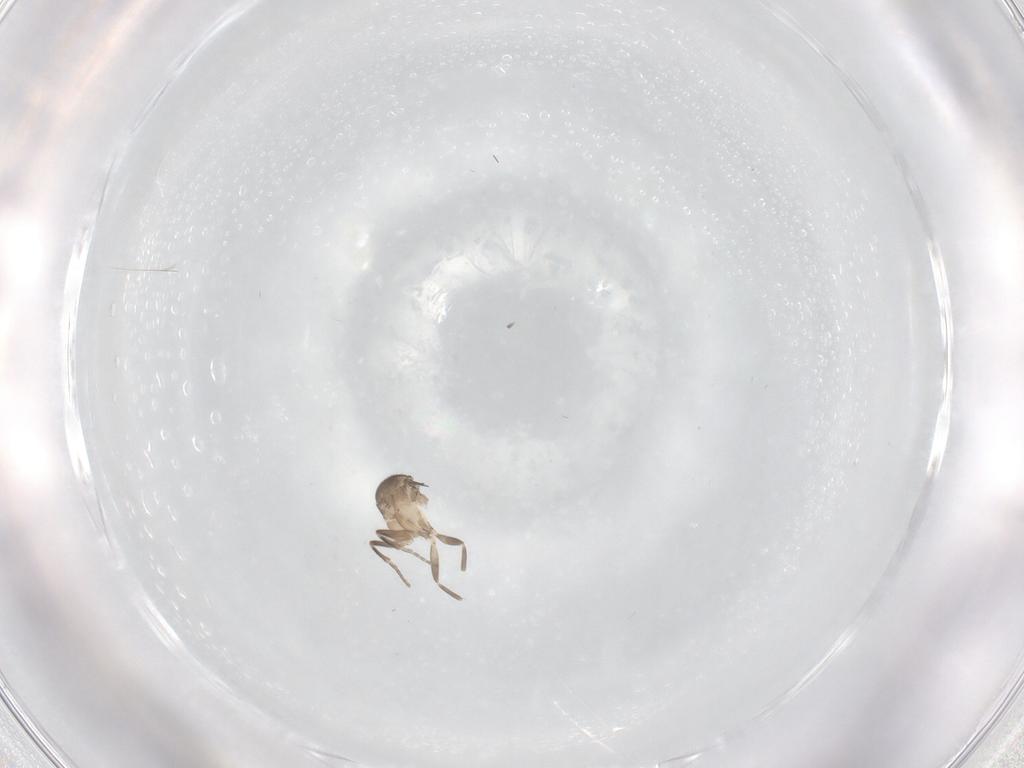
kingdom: Animalia
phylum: Arthropoda
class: Insecta
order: Diptera
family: Phoridae
